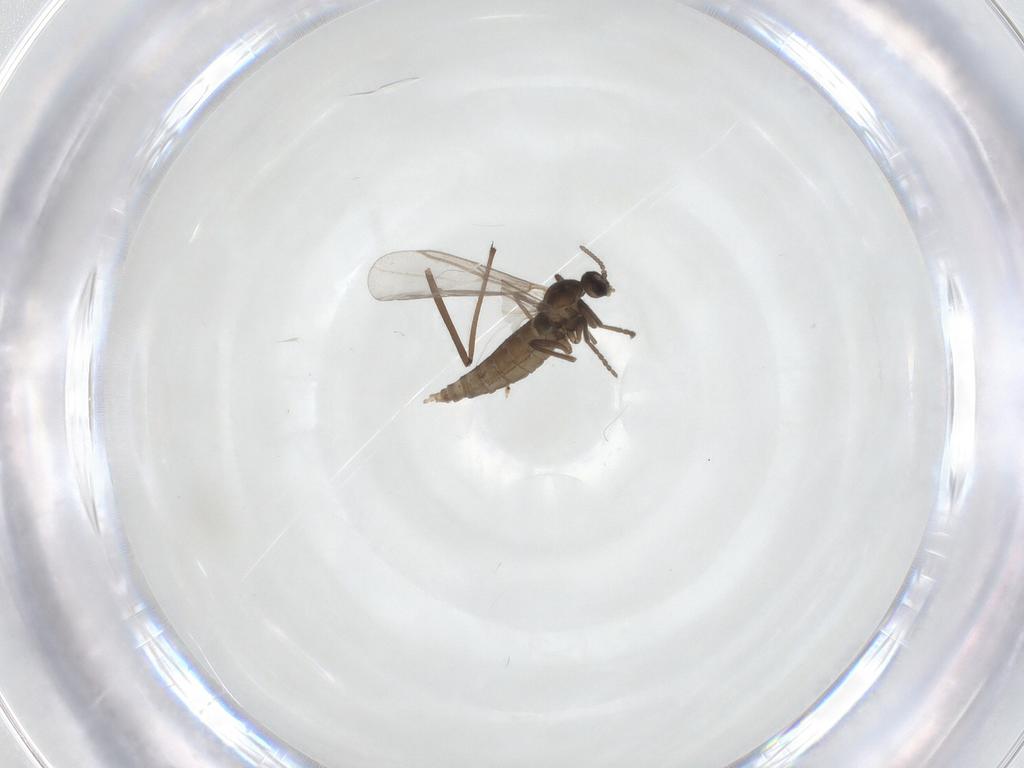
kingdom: Animalia
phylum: Arthropoda
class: Insecta
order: Diptera
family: Cecidomyiidae
